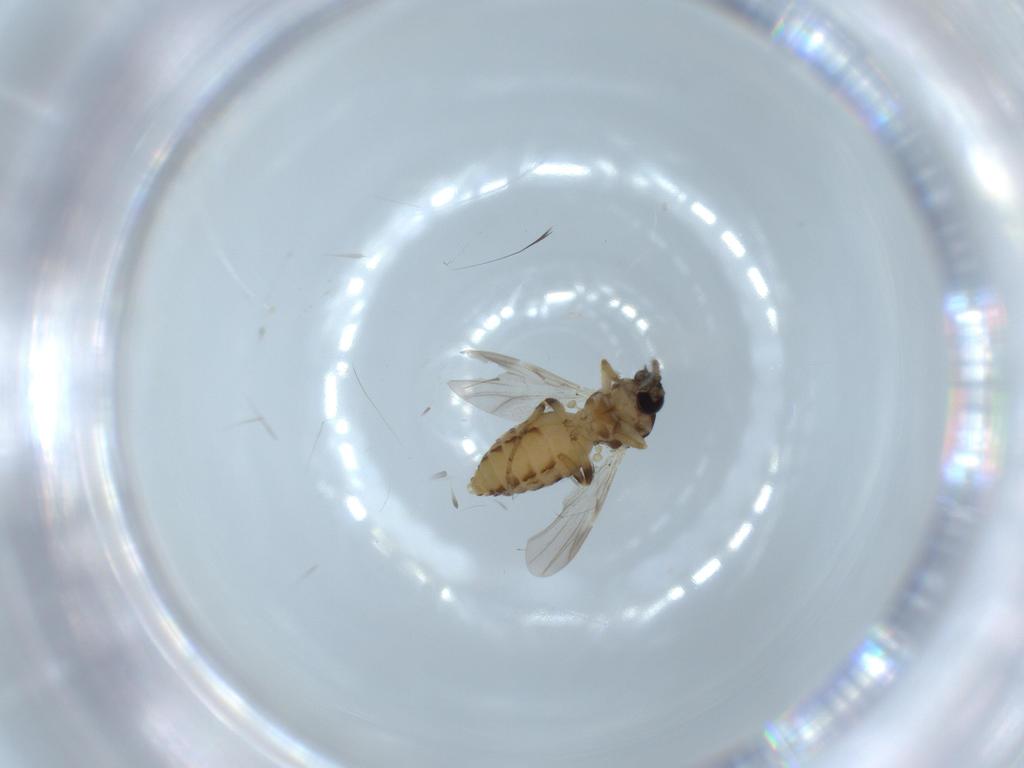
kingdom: Animalia
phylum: Arthropoda
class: Insecta
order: Diptera
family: Ceratopogonidae
